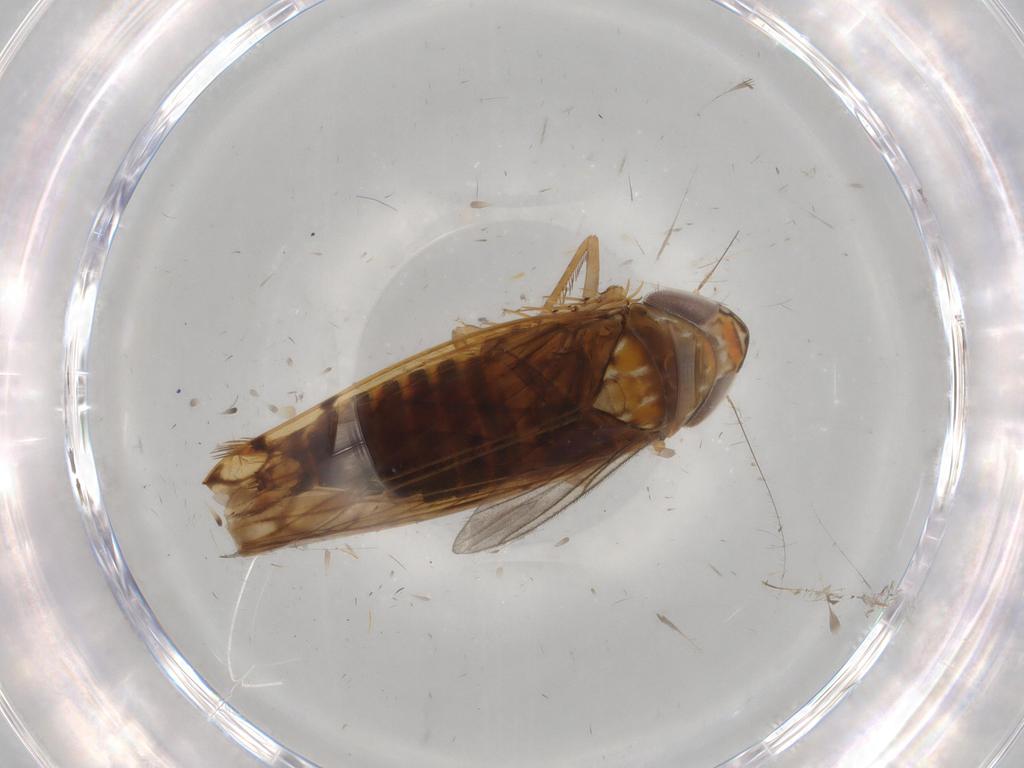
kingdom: Animalia
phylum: Arthropoda
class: Insecta
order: Hemiptera
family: Cicadellidae
